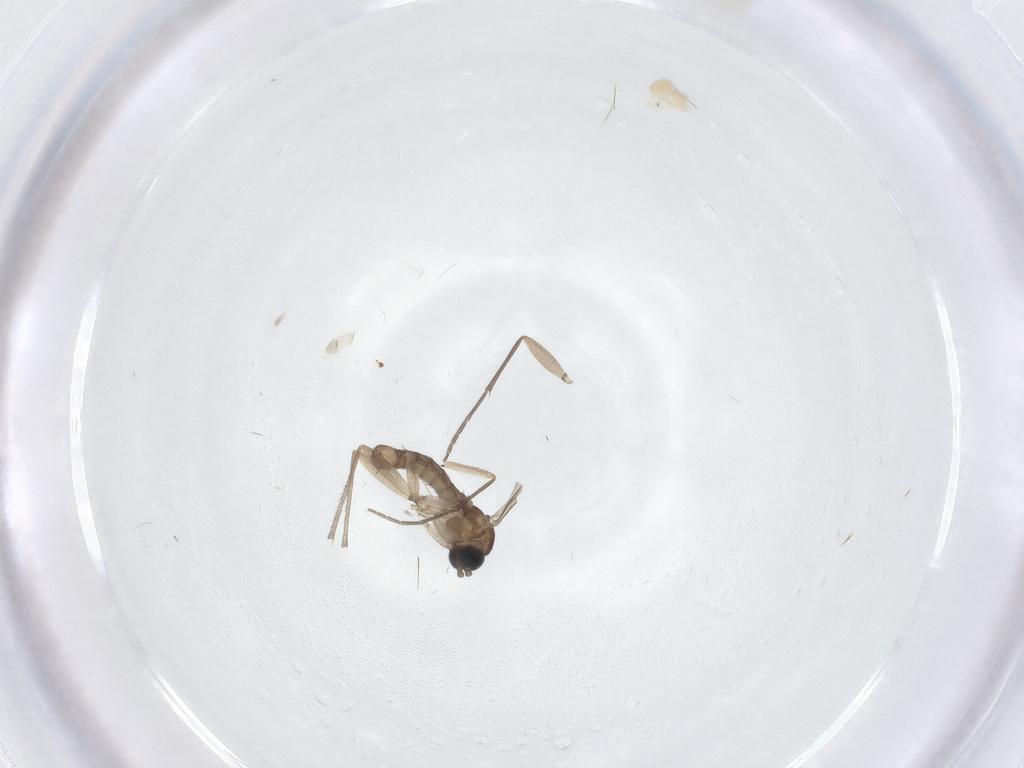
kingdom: Animalia
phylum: Arthropoda
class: Insecta
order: Diptera
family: Sciaridae
